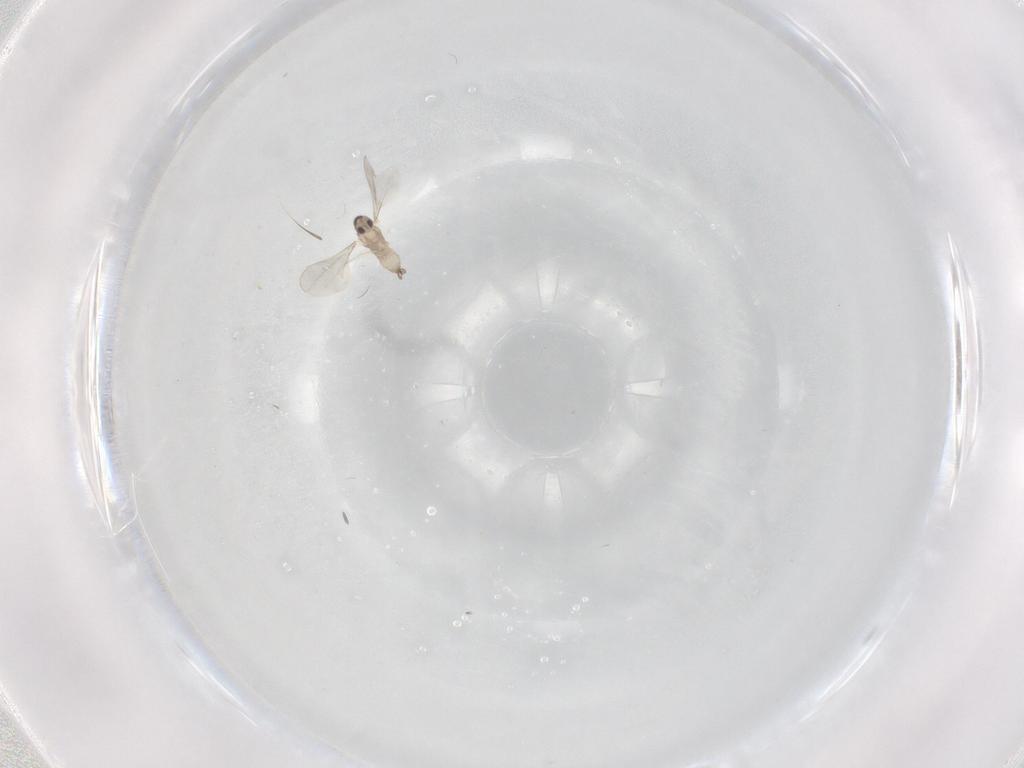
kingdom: Animalia
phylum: Arthropoda
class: Insecta
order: Diptera
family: Cecidomyiidae
